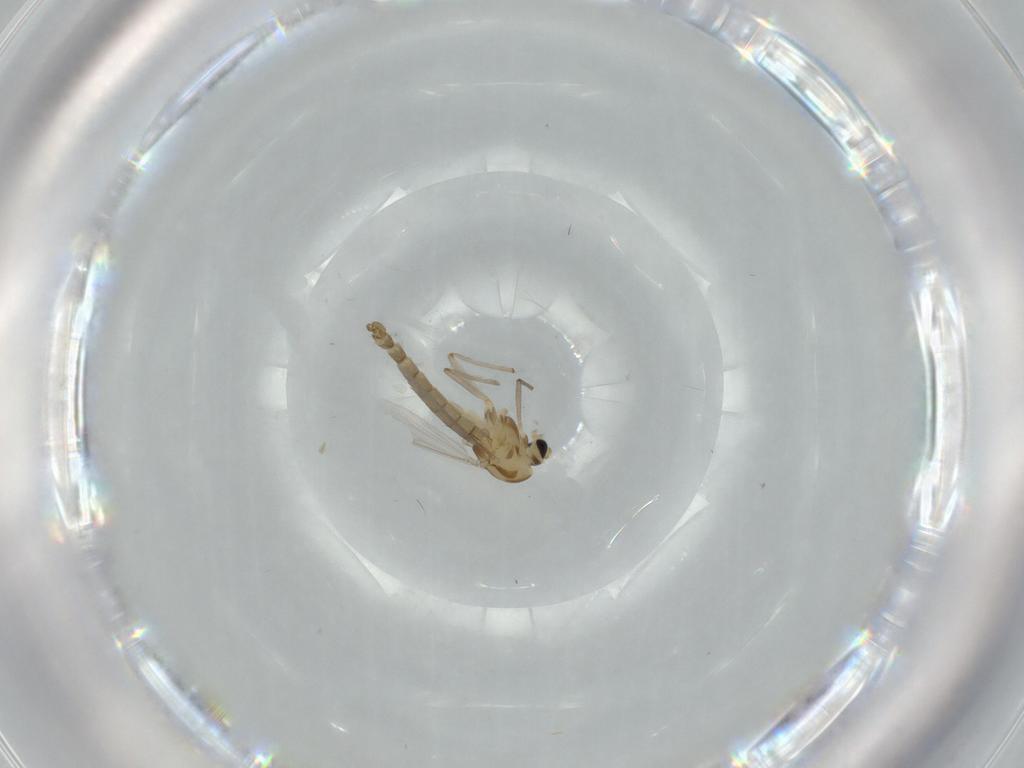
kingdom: Animalia
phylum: Arthropoda
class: Insecta
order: Diptera
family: Chironomidae
